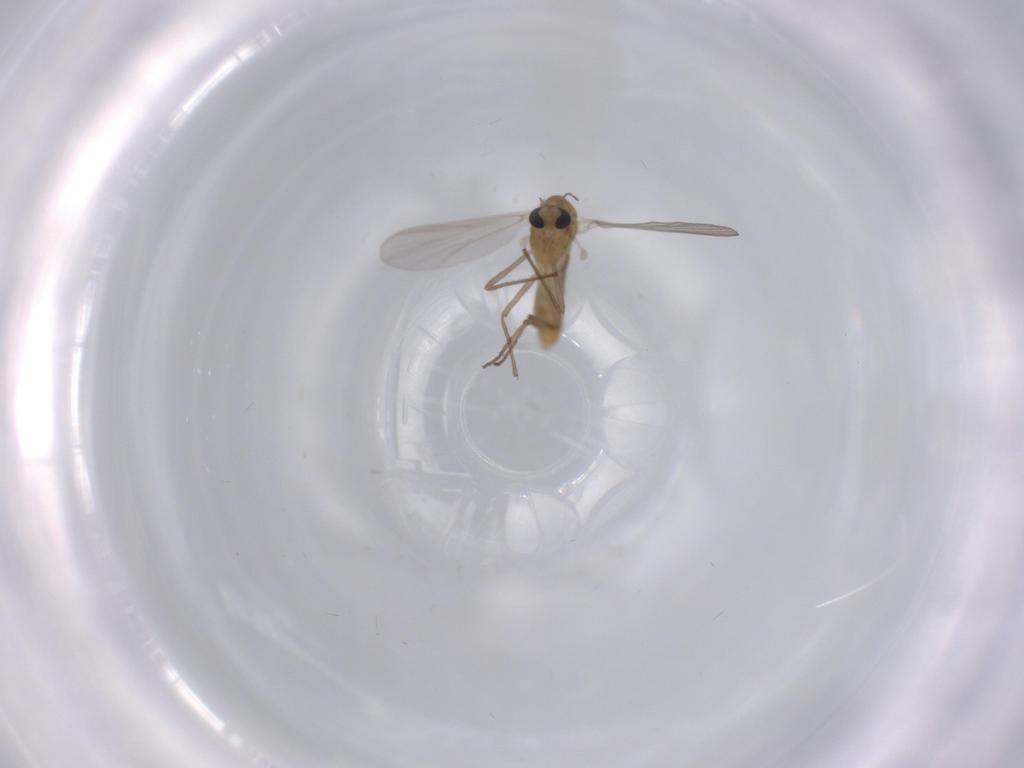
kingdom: Animalia
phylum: Arthropoda
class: Insecta
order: Diptera
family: Chironomidae
